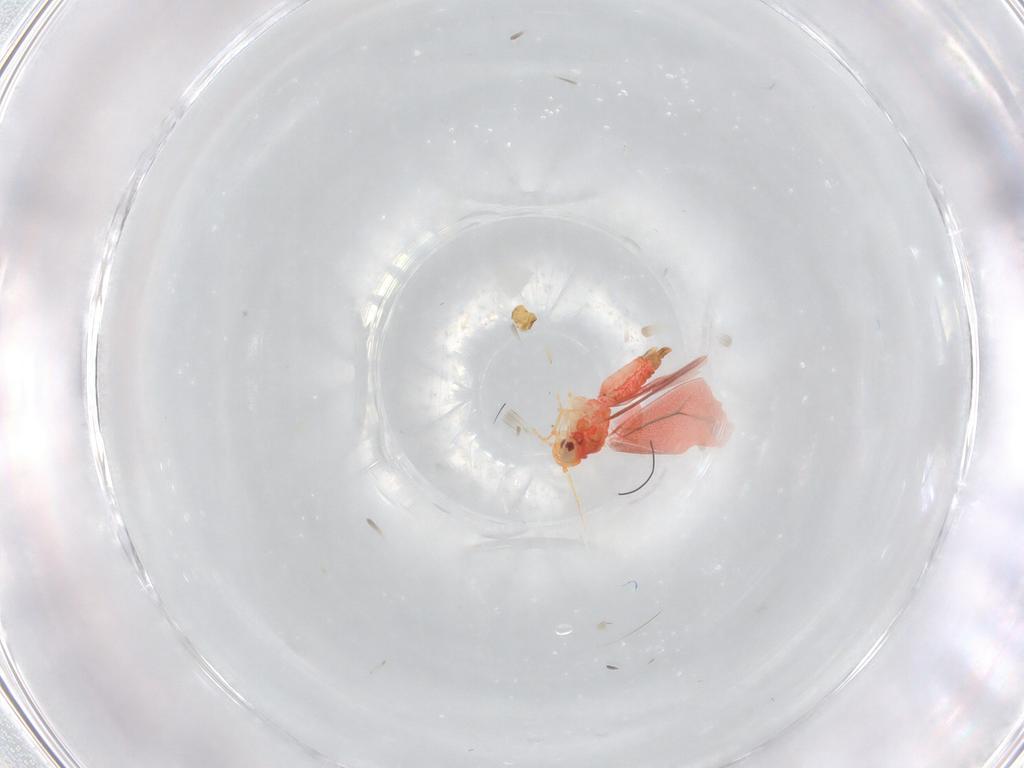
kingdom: Animalia
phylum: Arthropoda
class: Insecta
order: Hemiptera
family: Aleyrodidae
